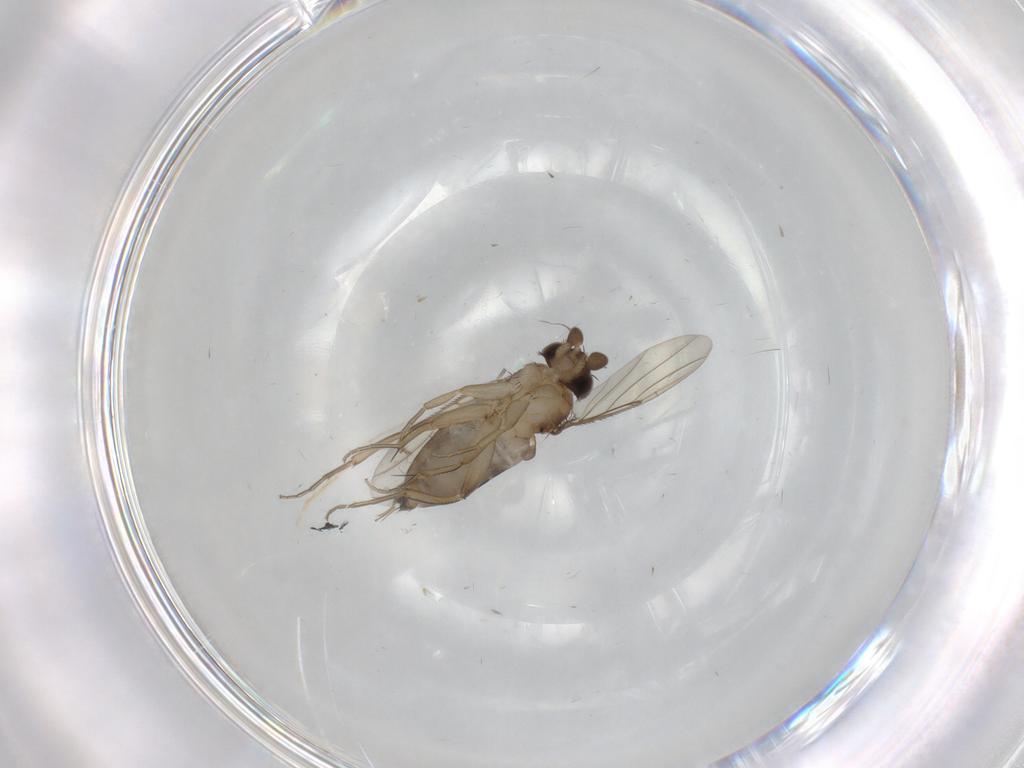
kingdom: Animalia
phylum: Arthropoda
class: Insecta
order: Diptera
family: Phoridae
